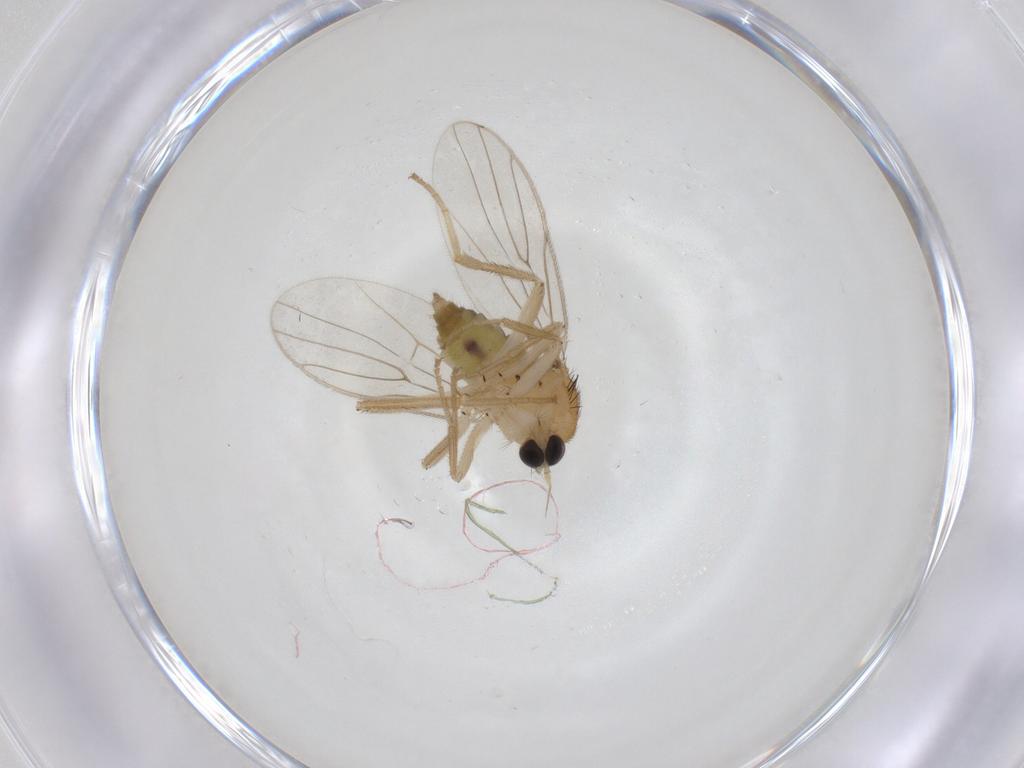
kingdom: Animalia
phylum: Arthropoda
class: Insecta
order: Diptera
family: Hybotidae
